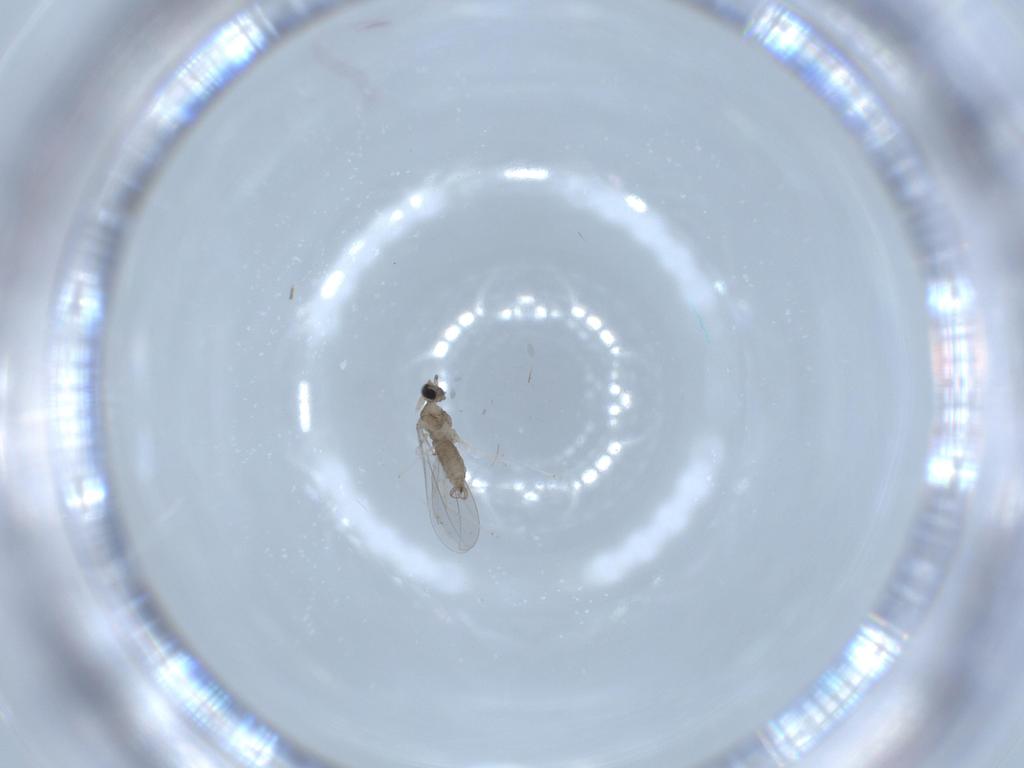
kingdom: Animalia
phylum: Arthropoda
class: Insecta
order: Diptera
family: Cecidomyiidae
